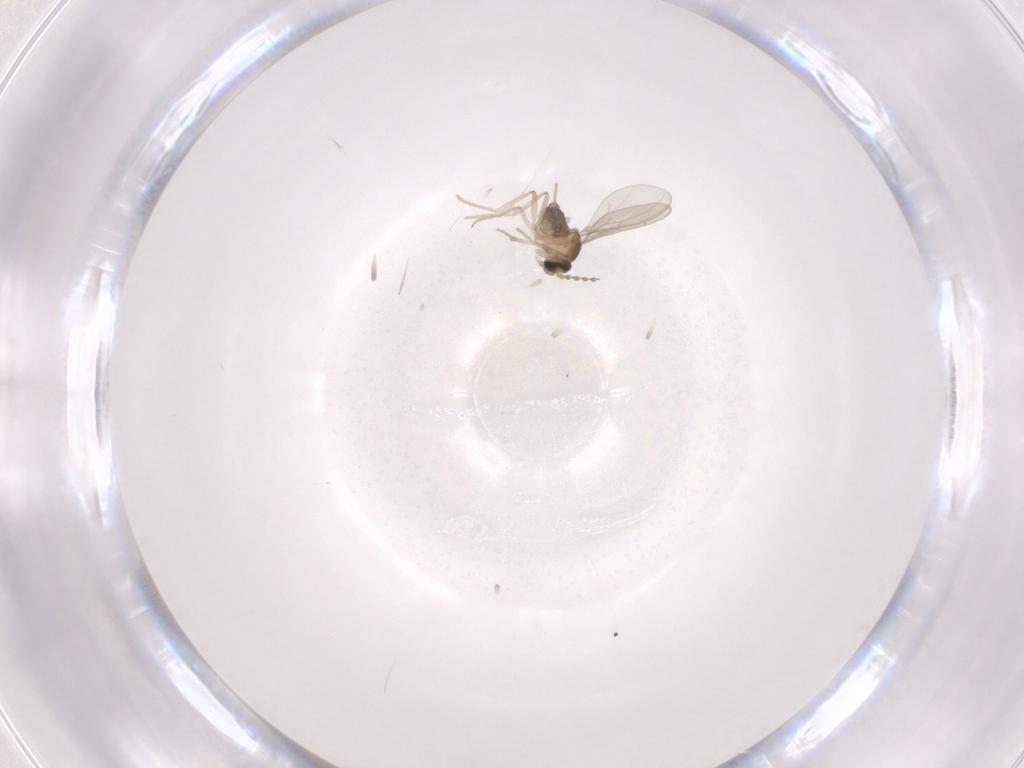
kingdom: Animalia
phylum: Arthropoda
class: Insecta
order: Diptera
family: Cecidomyiidae
